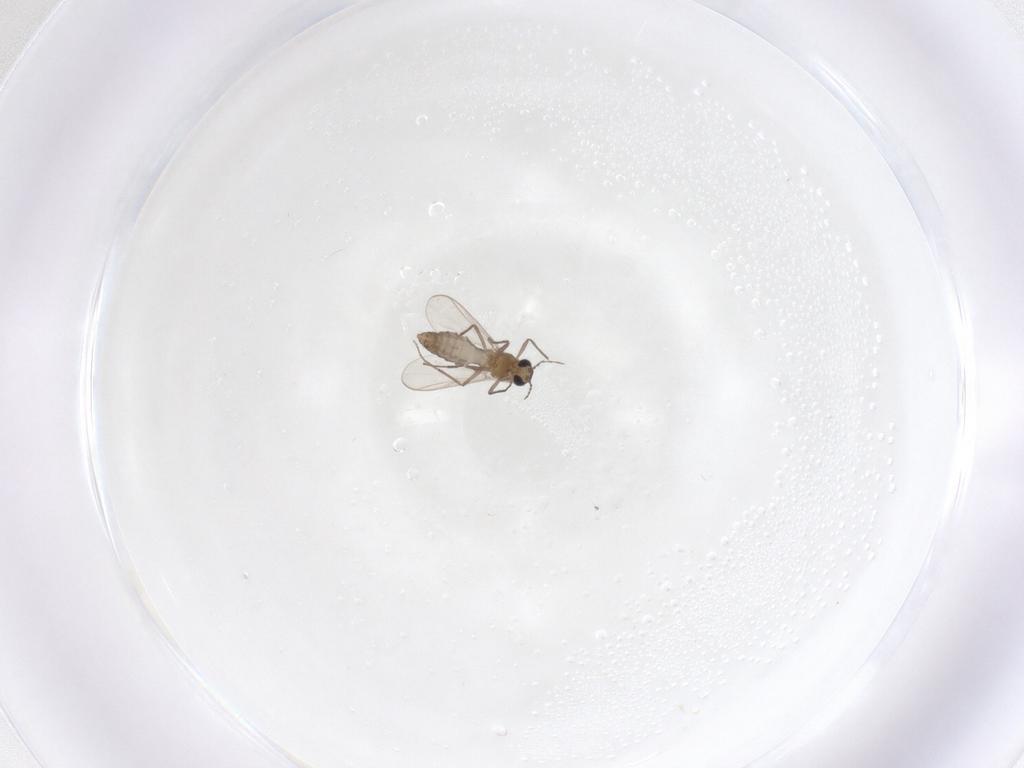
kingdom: Animalia
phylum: Arthropoda
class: Insecta
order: Diptera
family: Chironomidae
